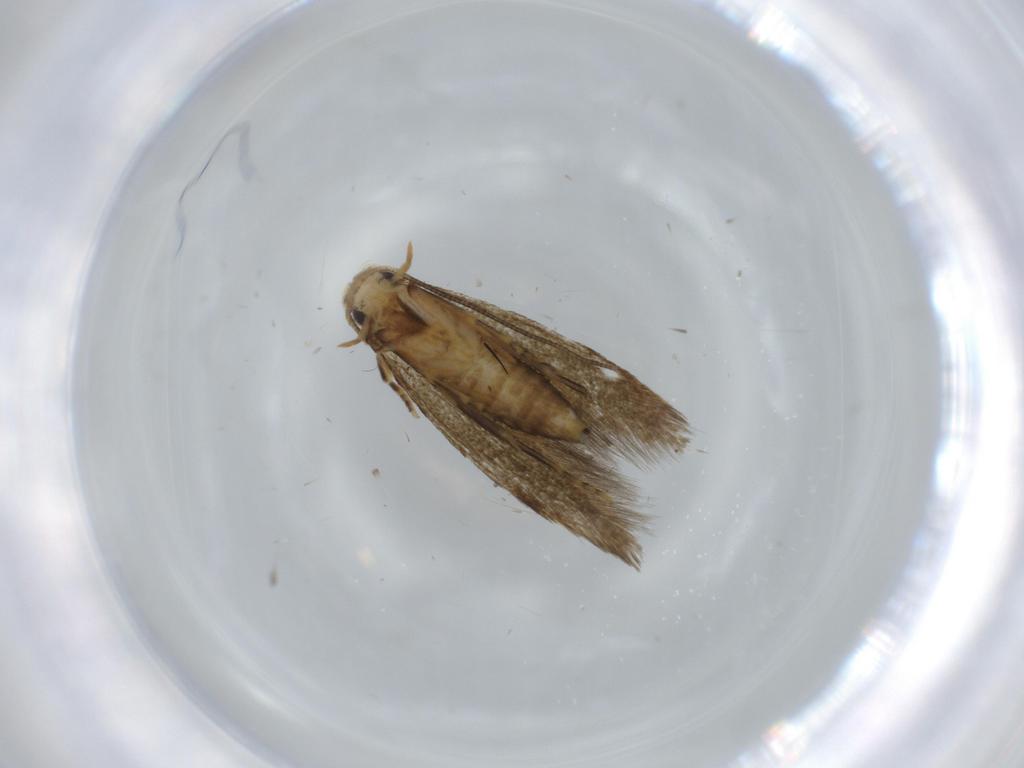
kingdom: Animalia
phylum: Arthropoda
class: Insecta
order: Lepidoptera
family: Tineidae
